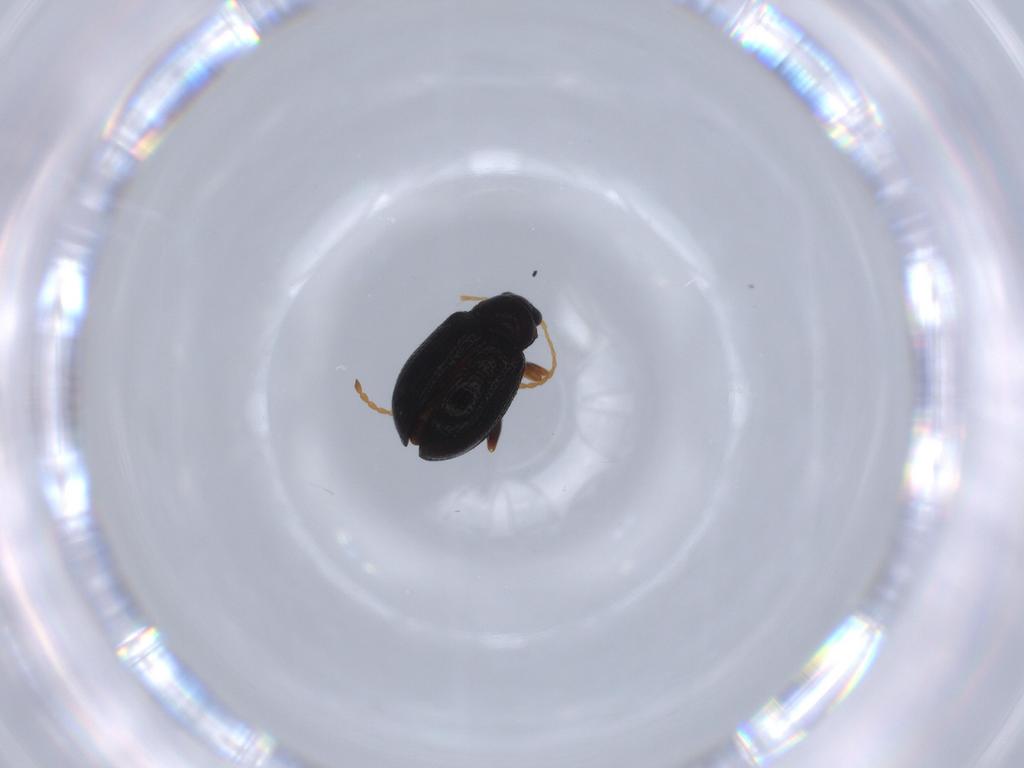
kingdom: Animalia
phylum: Arthropoda
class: Insecta
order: Coleoptera
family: Chrysomelidae
